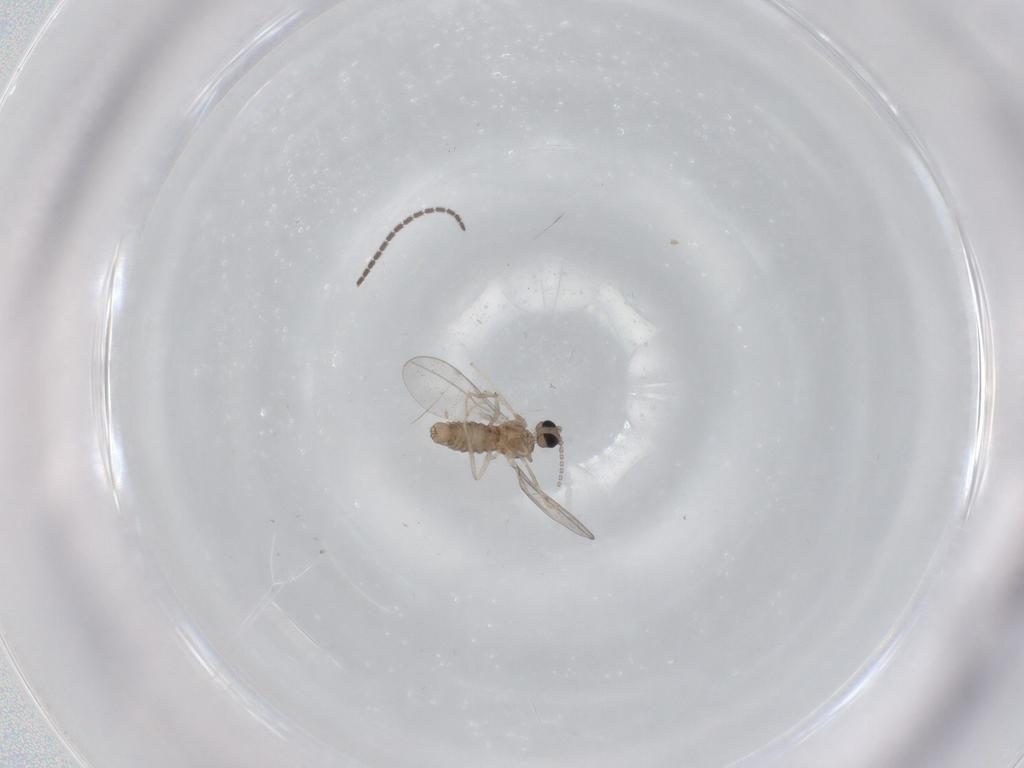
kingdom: Animalia
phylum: Arthropoda
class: Insecta
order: Diptera
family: Cecidomyiidae
